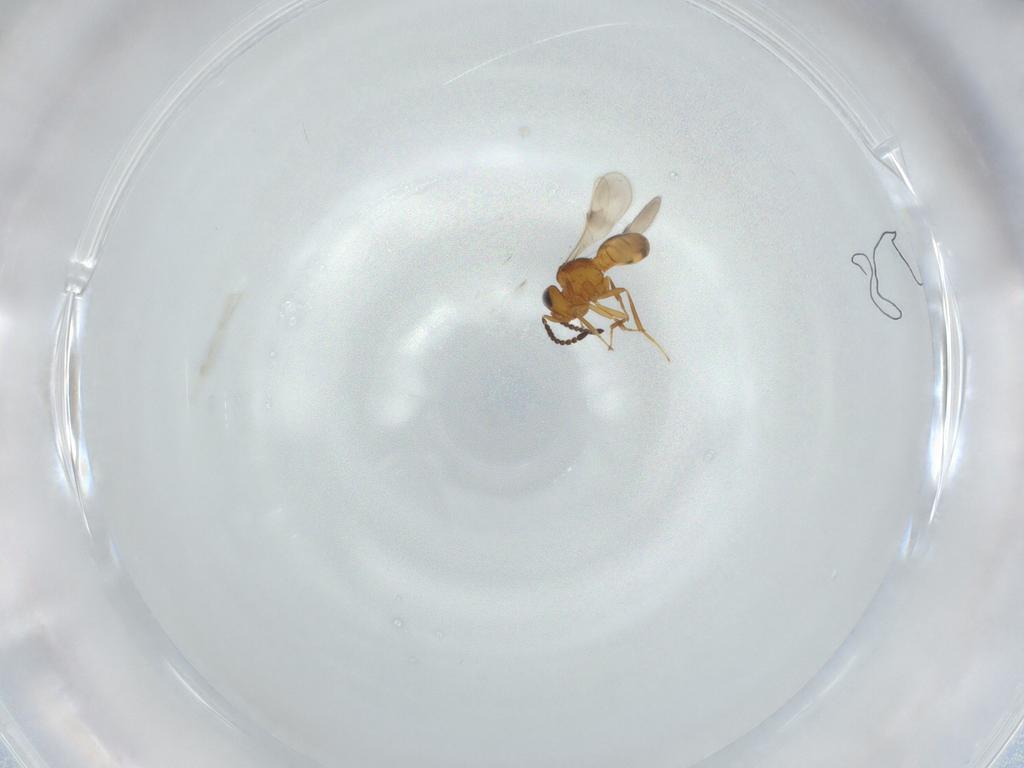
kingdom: Animalia
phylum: Arthropoda
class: Insecta
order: Hymenoptera
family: Scelionidae
